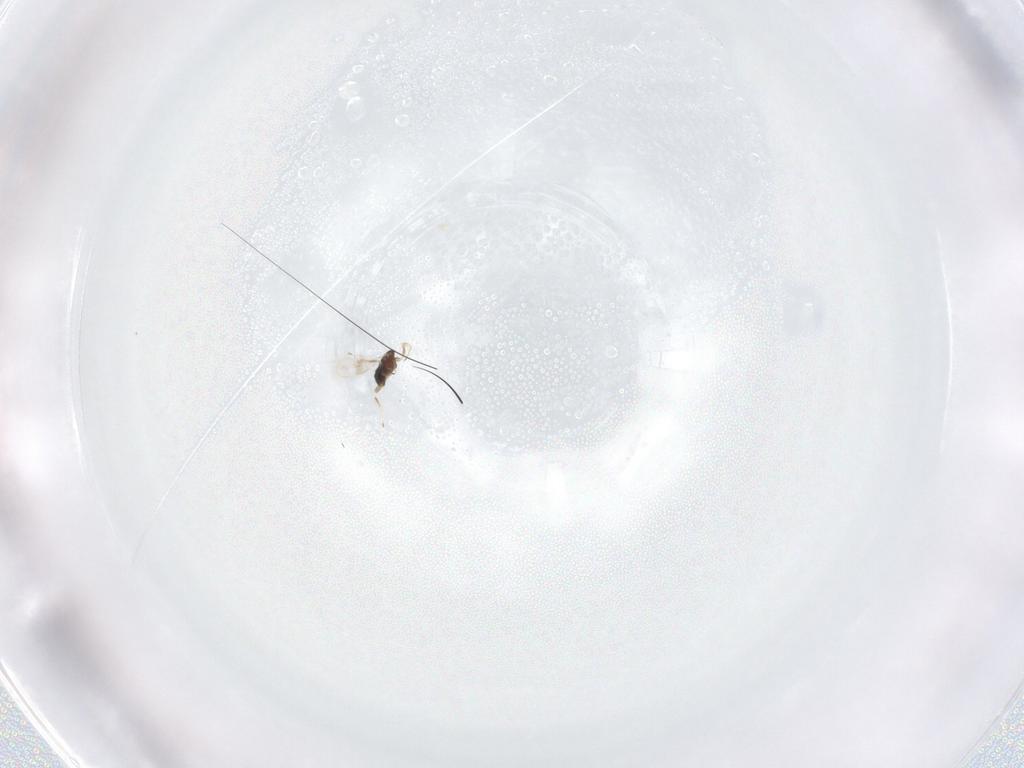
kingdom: Animalia
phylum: Arthropoda
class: Insecta
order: Hymenoptera
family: Azotidae
